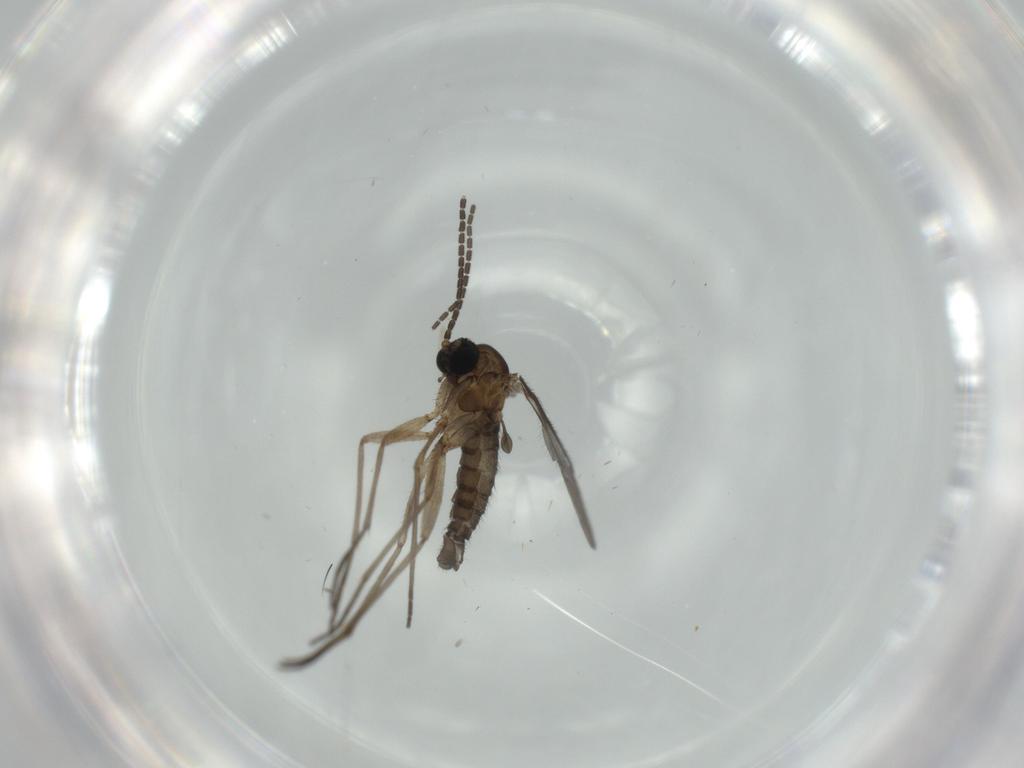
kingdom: Animalia
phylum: Arthropoda
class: Insecta
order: Diptera
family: Sciaridae
